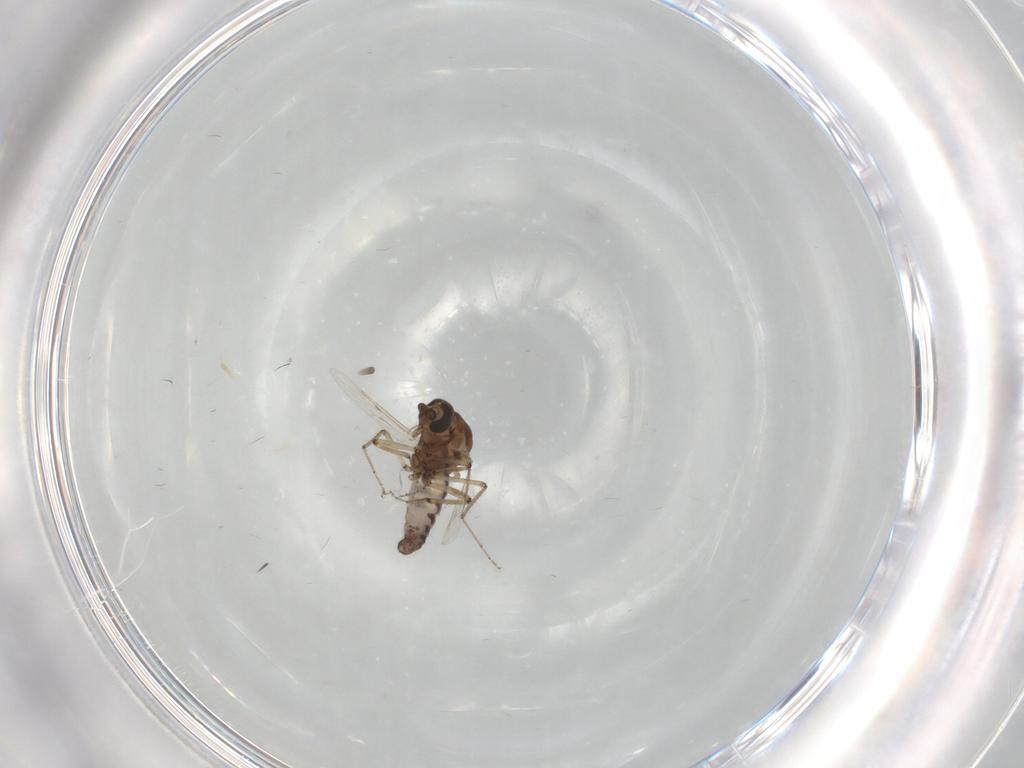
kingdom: Animalia
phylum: Arthropoda
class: Insecta
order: Diptera
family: Ceratopogonidae
